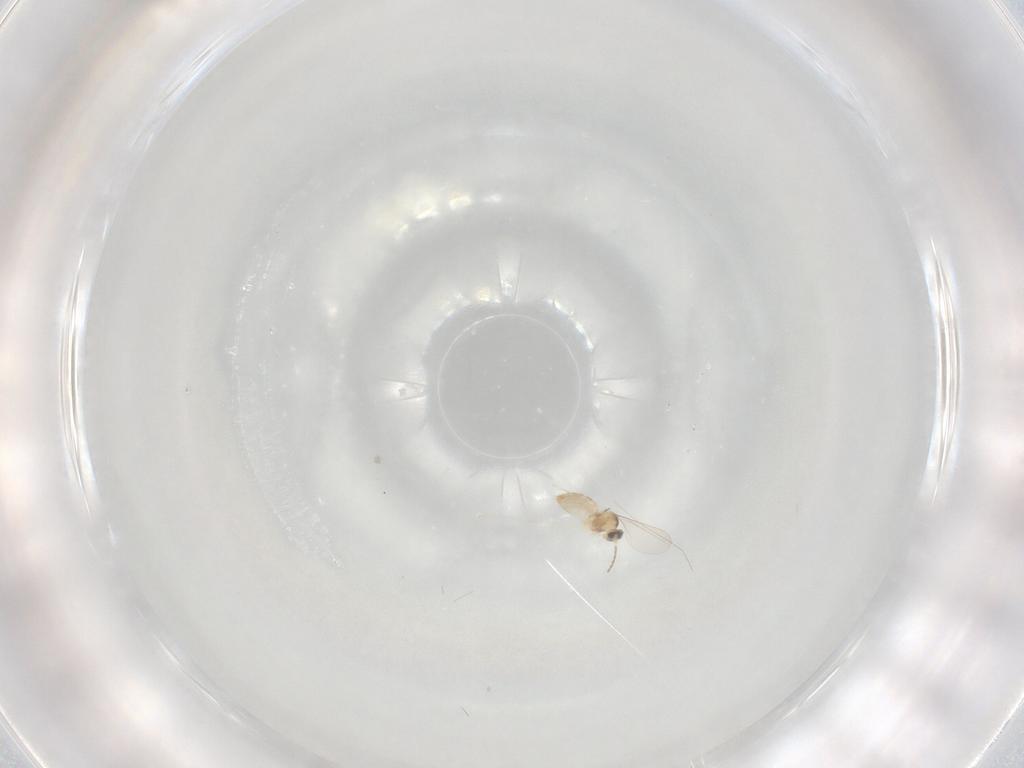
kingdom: Animalia
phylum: Arthropoda
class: Insecta
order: Diptera
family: Cecidomyiidae
